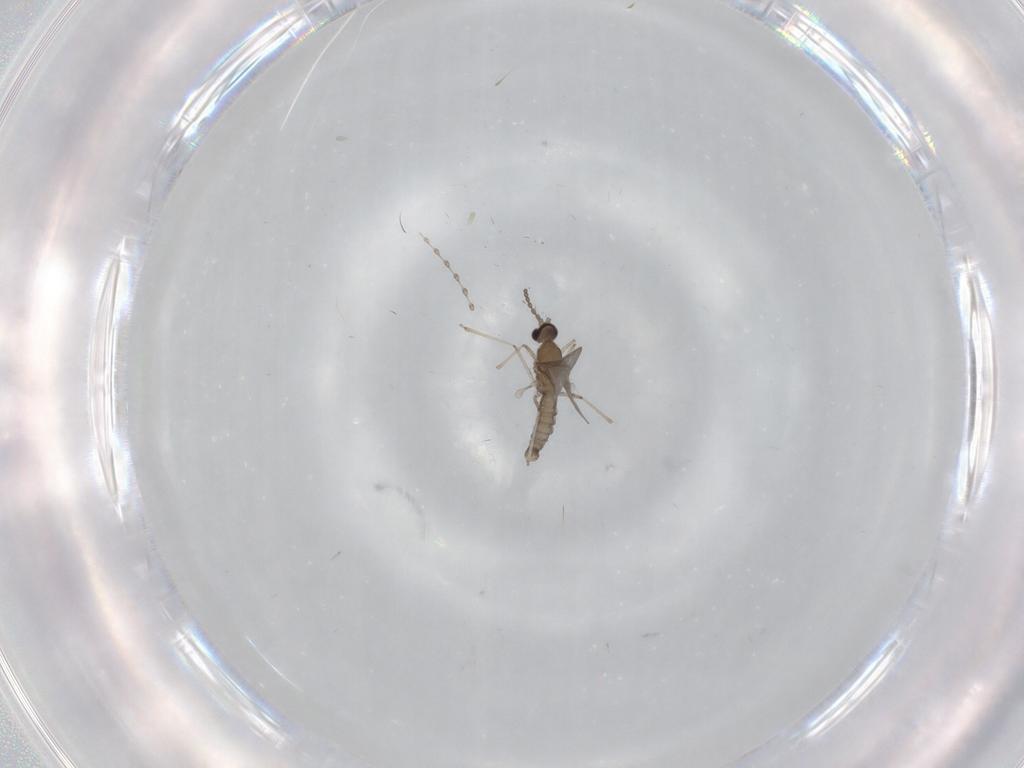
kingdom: Animalia
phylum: Arthropoda
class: Insecta
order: Diptera
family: Cecidomyiidae
